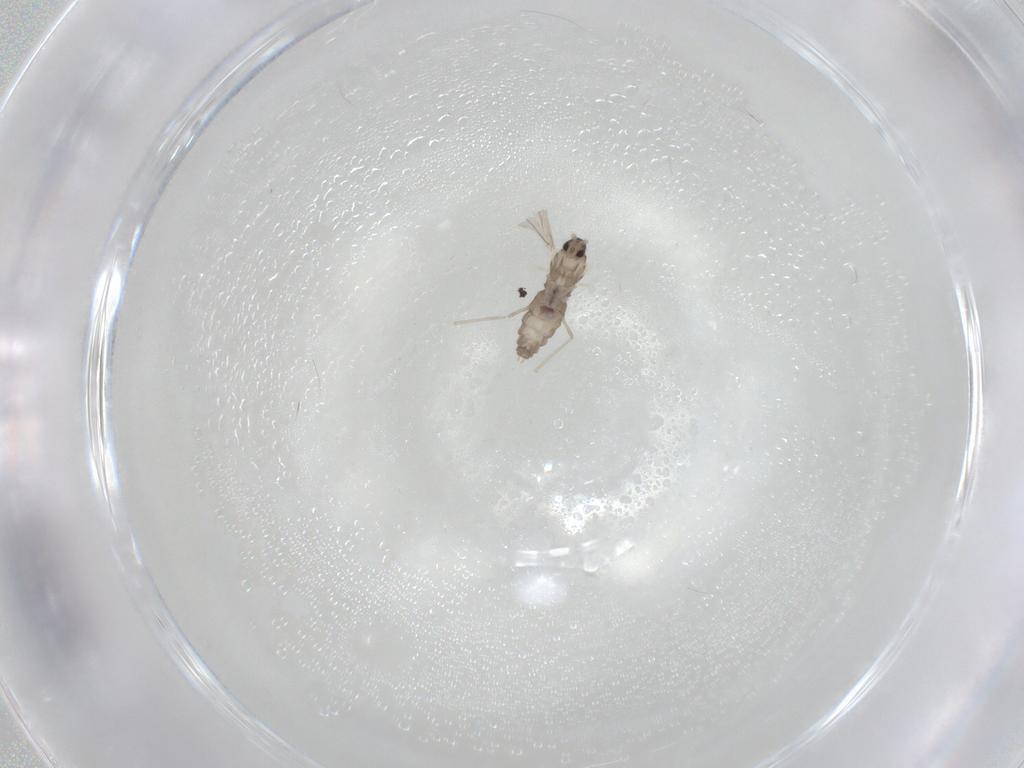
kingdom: Animalia
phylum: Arthropoda
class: Insecta
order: Diptera
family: Cecidomyiidae
